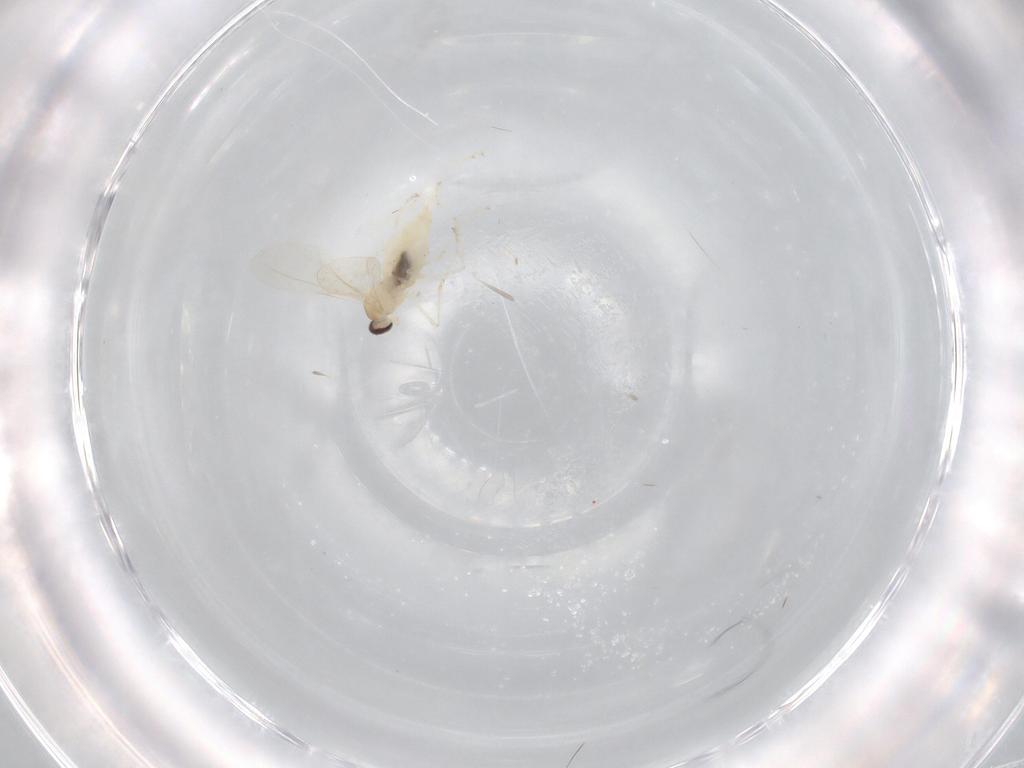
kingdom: Animalia
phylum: Arthropoda
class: Insecta
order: Diptera
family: Cecidomyiidae
